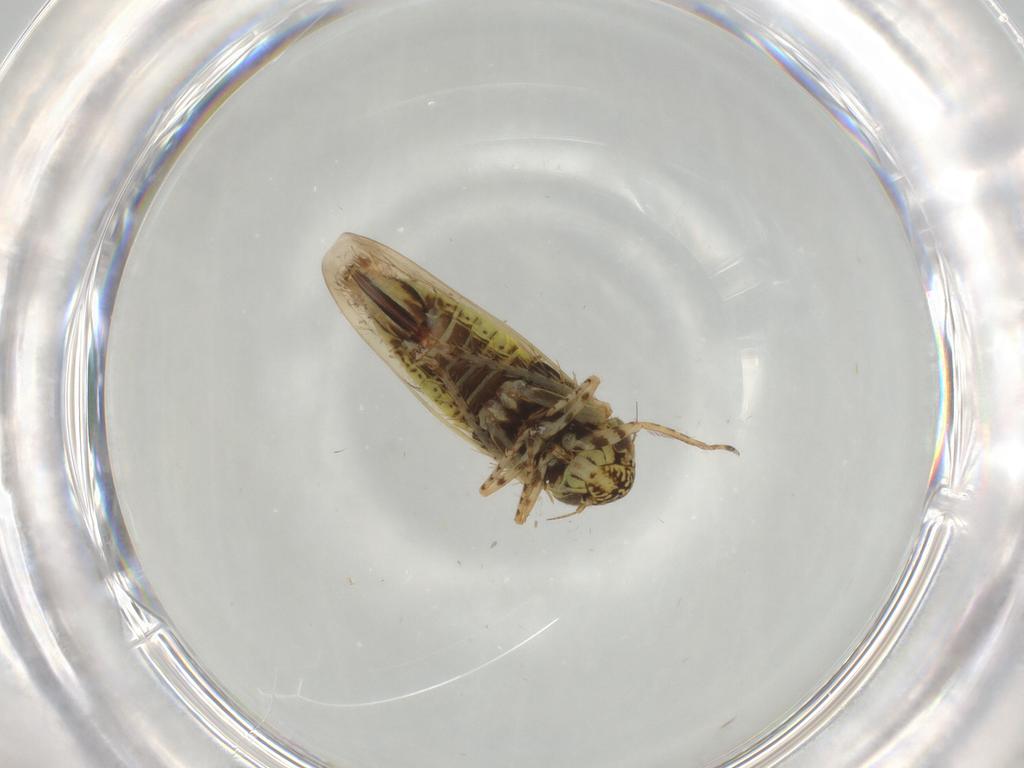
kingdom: Animalia
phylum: Arthropoda
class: Insecta
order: Hemiptera
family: Cicadellidae
